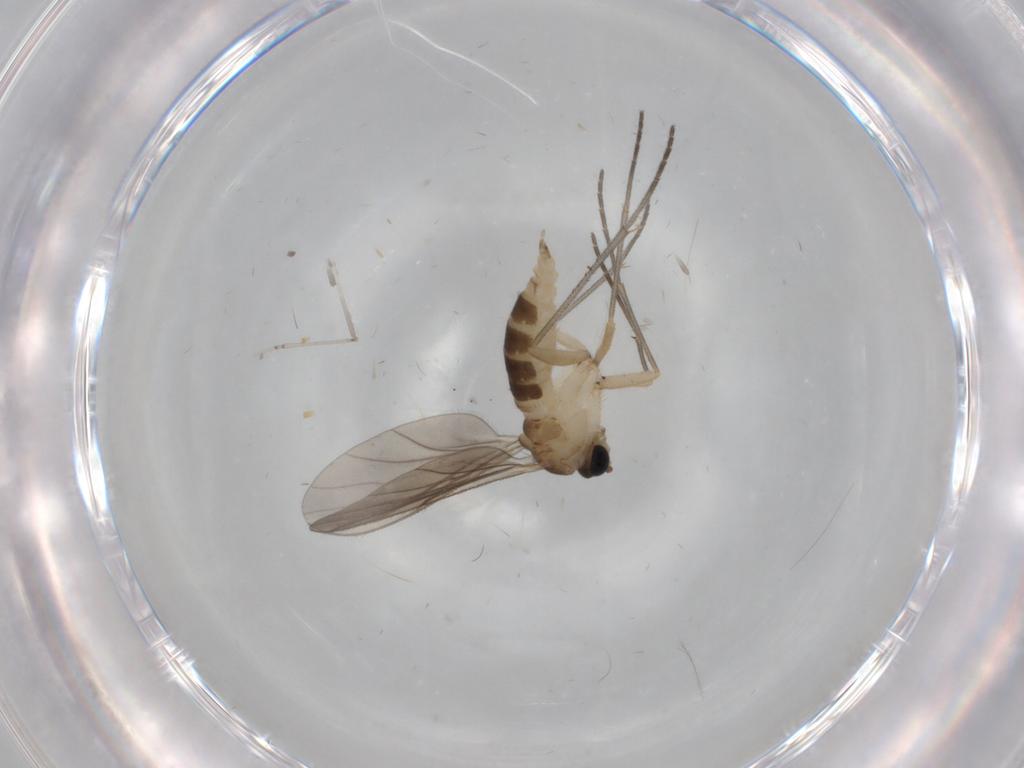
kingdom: Animalia
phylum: Arthropoda
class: Insecta
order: Diptera
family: Sciaridae
